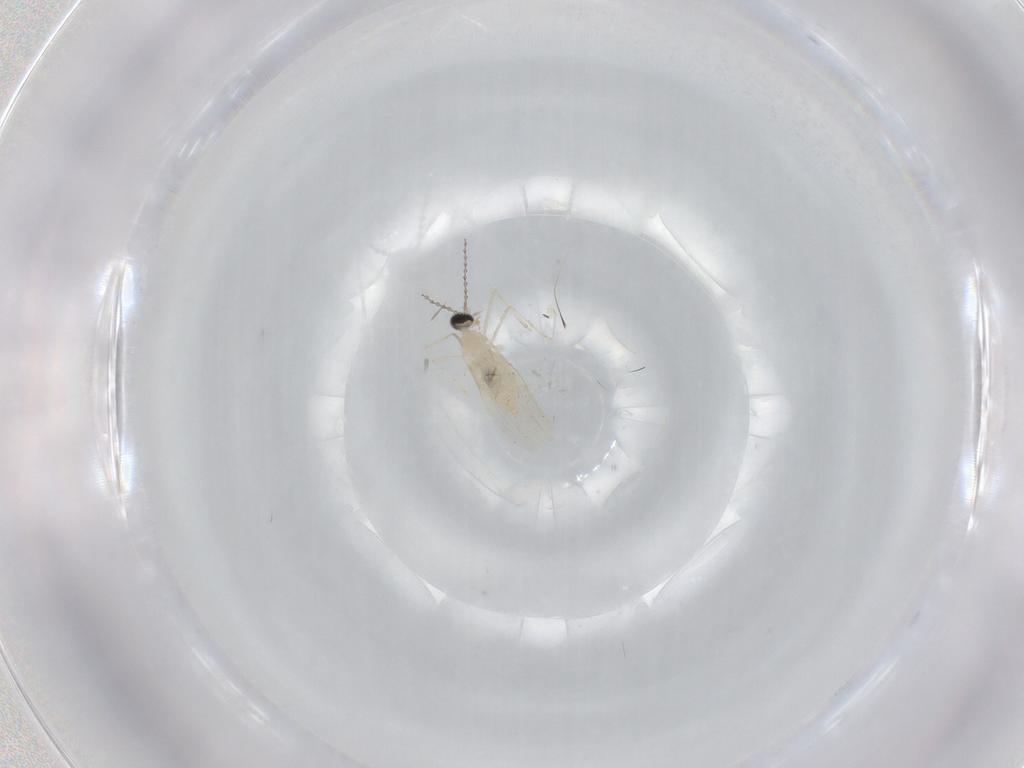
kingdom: Animalia
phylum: Arthropoda
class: Insecta
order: Diptera
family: Cecidomyiidae
